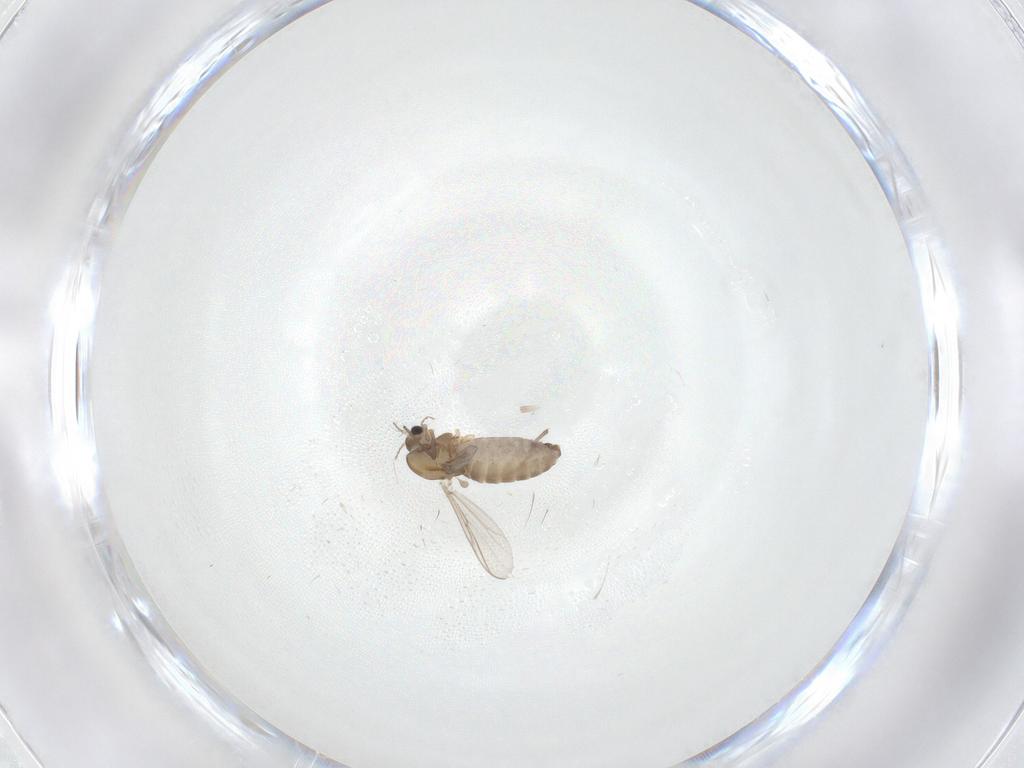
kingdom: Animalia
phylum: Arthropoda
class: Insecta
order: Diptera
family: Chironomidae
